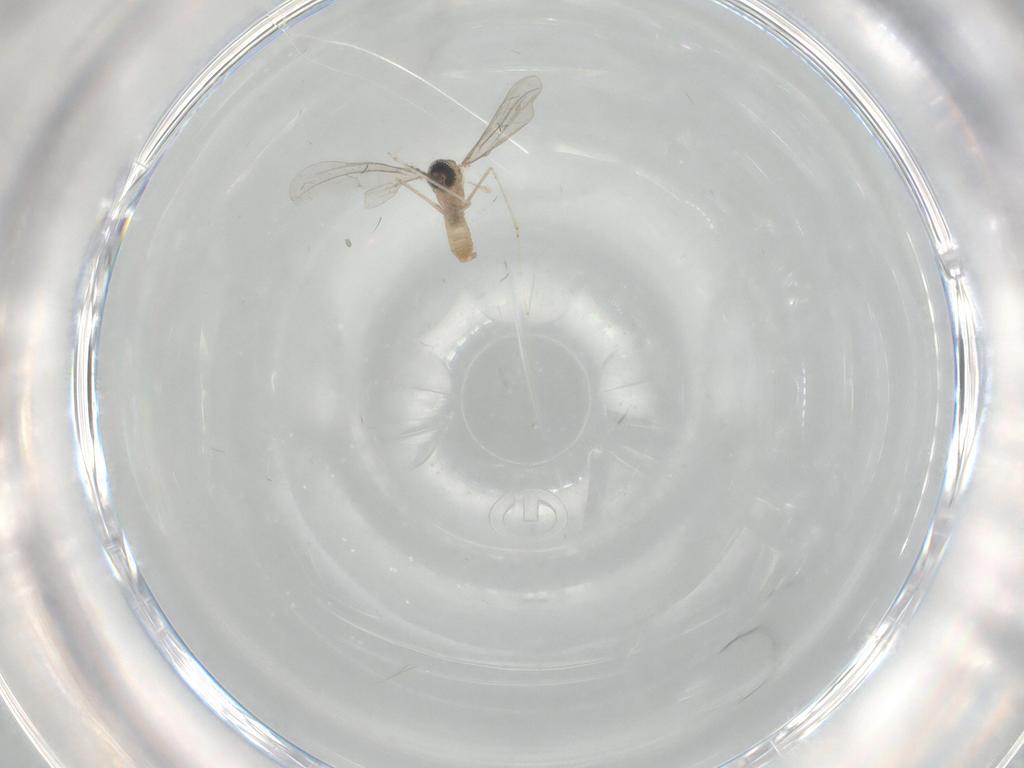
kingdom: Animalia
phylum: Arthropoda
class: Insecta
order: Diptera
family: Cecidomyiidae
